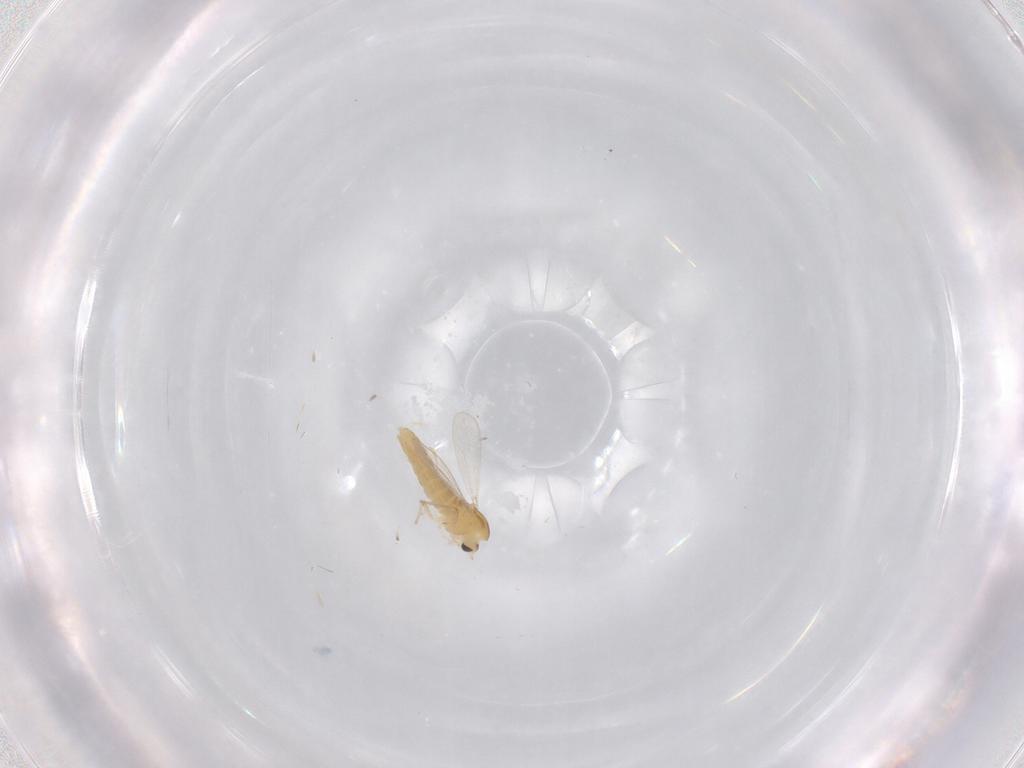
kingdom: Animalia
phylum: Arthropoda
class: Insecta
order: Diptera
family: Chironomidae
